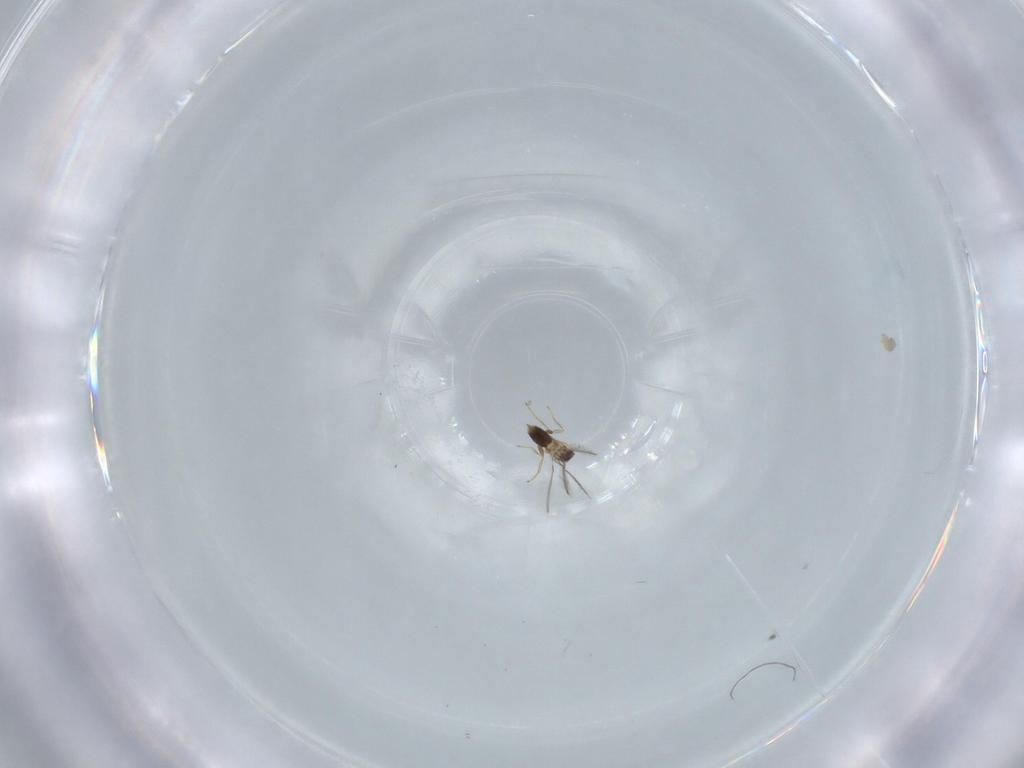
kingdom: Animalia
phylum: Arthropoda
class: Insecta
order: Hymenoptera
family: Mymaridae
